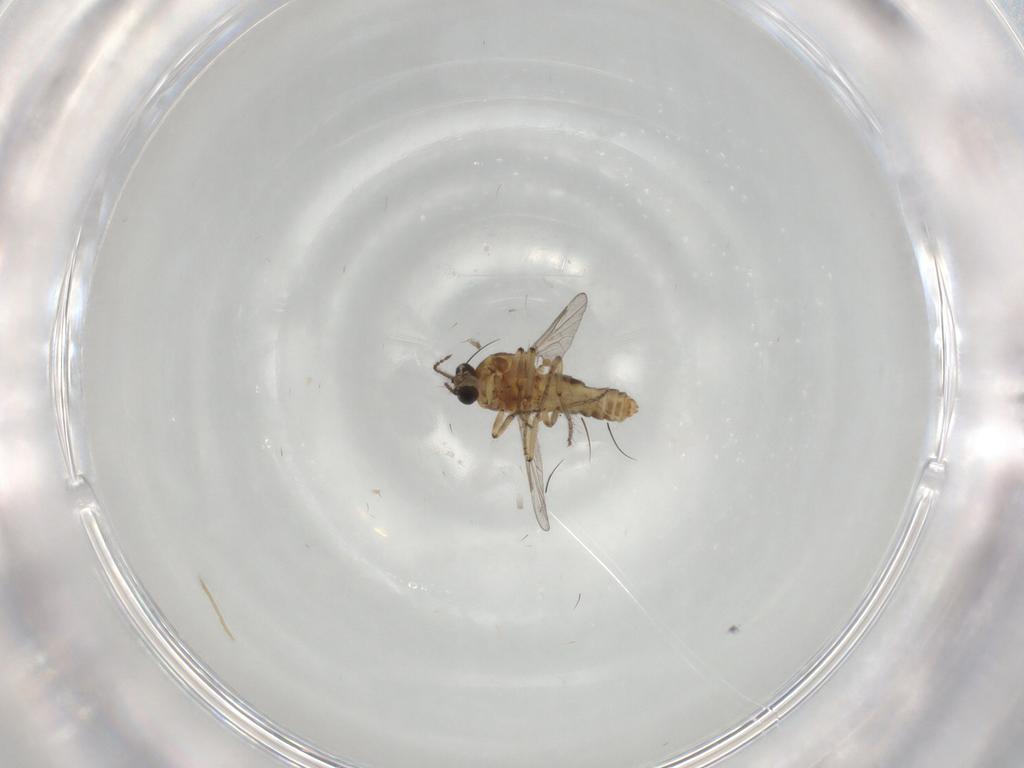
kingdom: Animalia
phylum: Arthropoda
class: Insecta
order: Diptera
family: Ceratopogonidae
